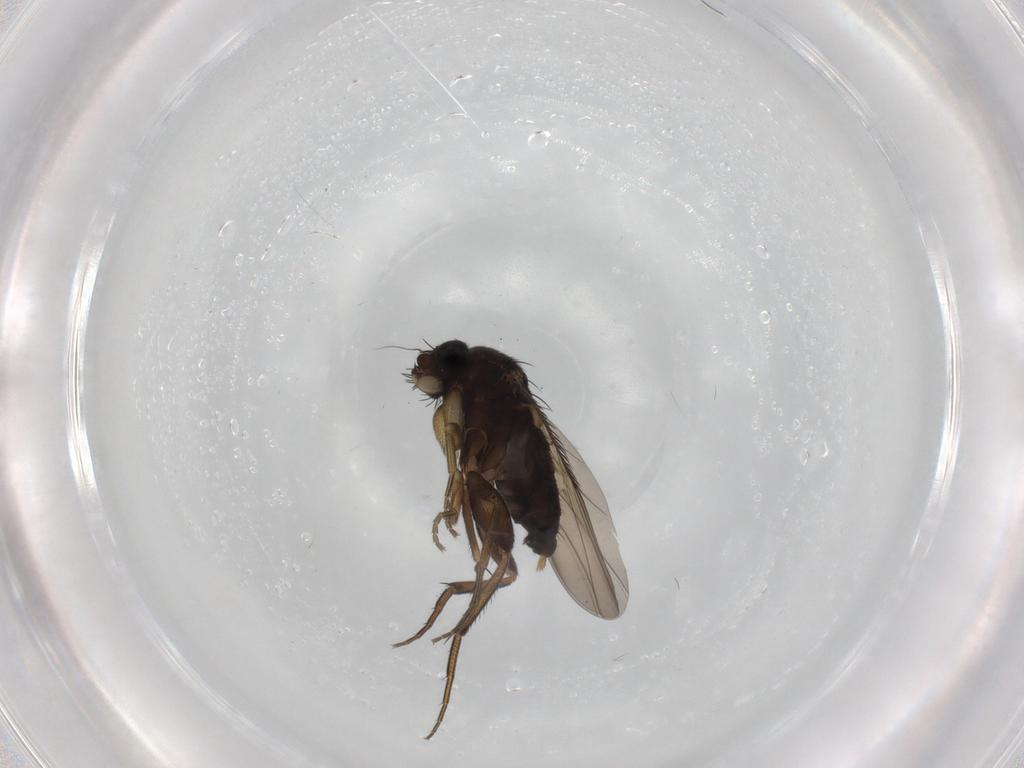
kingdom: Animalia
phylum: Arthropoda
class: Insecta
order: Diptera
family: Phoridae
